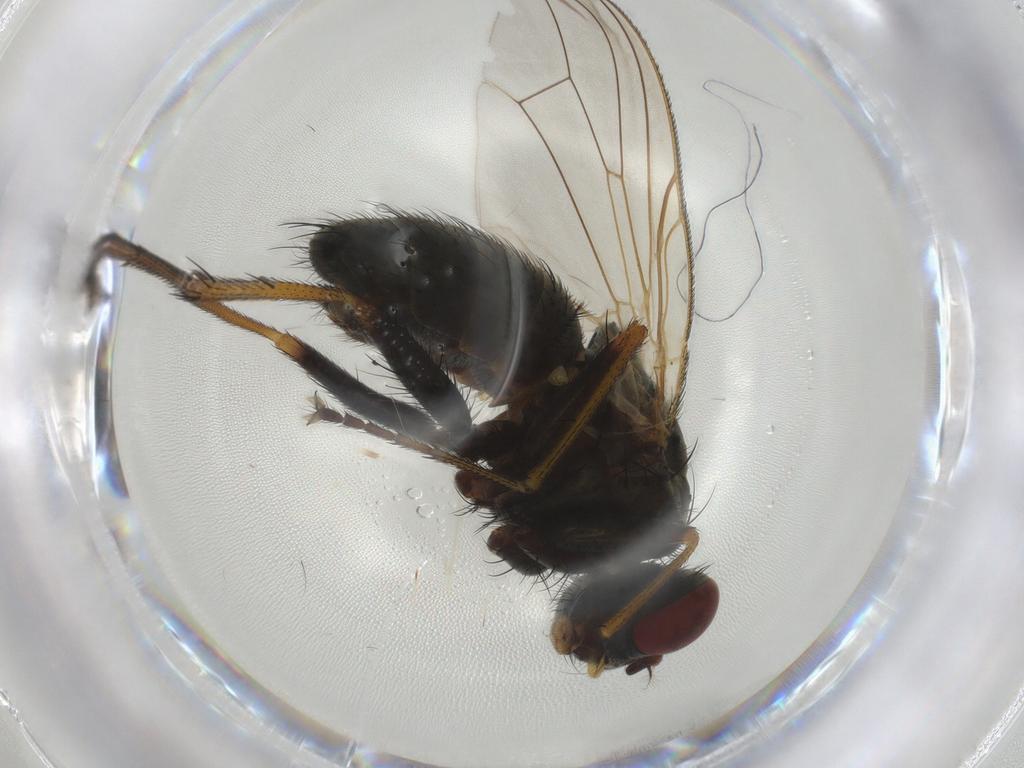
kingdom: Animalia
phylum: Arthropoda
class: Insecta
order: Diptera
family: Ceratopogonidae
